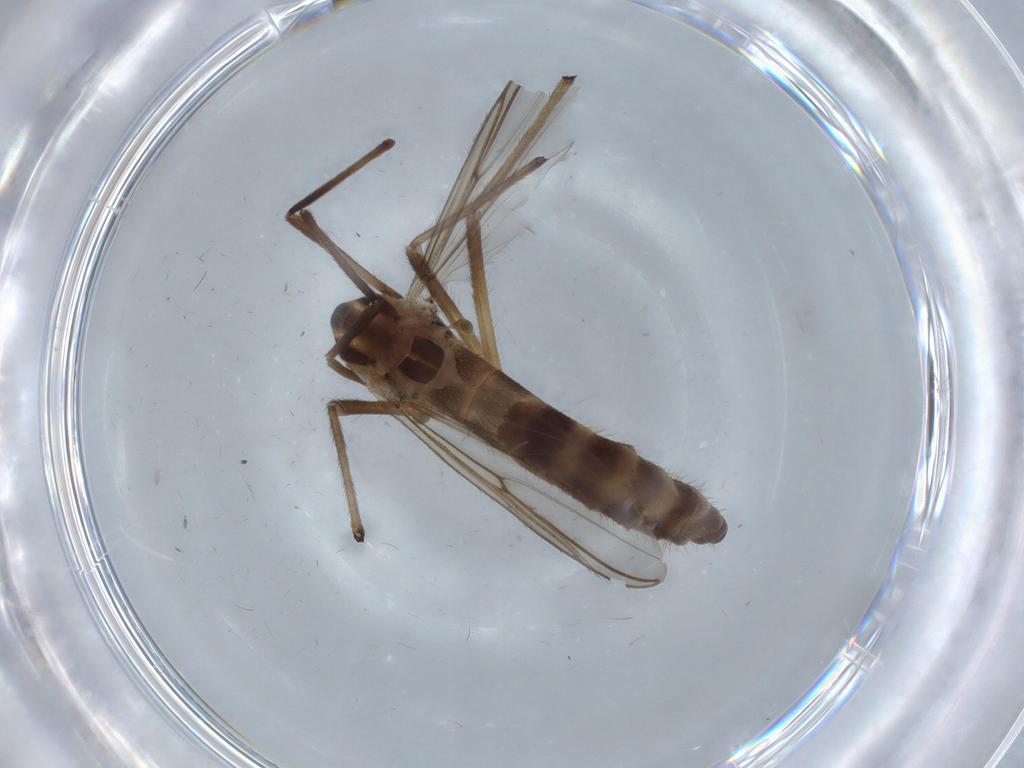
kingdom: Animalia
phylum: Arthropoda
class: Insecta
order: Diptera
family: Chironomidae
